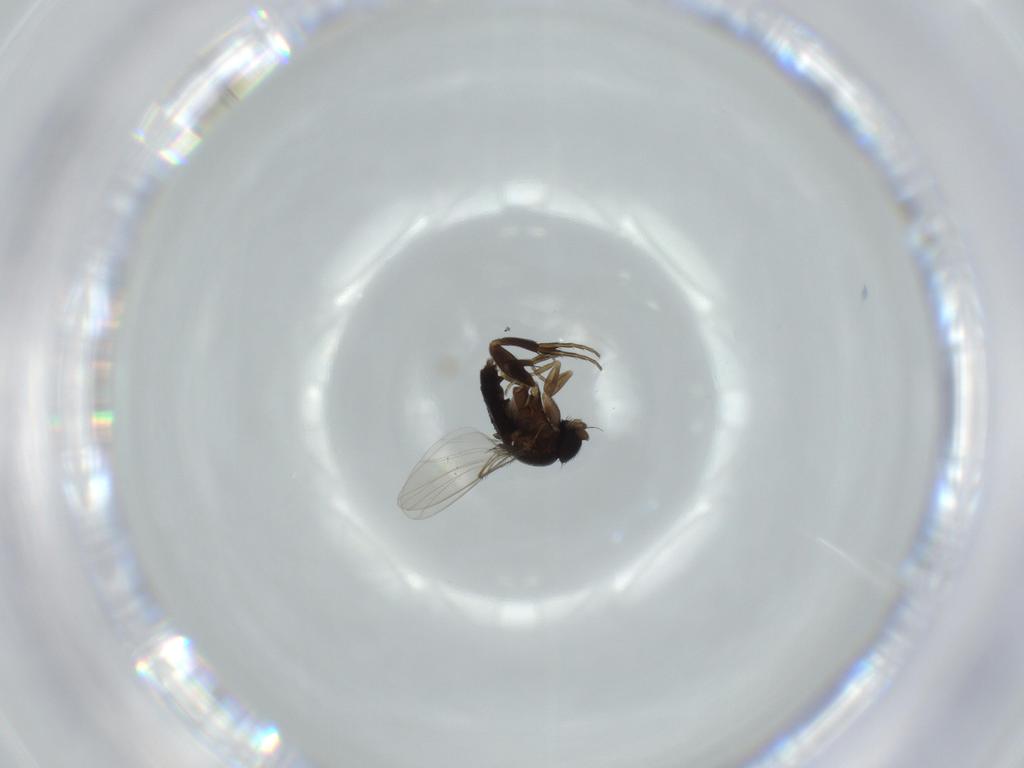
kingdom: Animalia
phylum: Arthropoda
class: Insecta
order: Diptera
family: Phoridae
